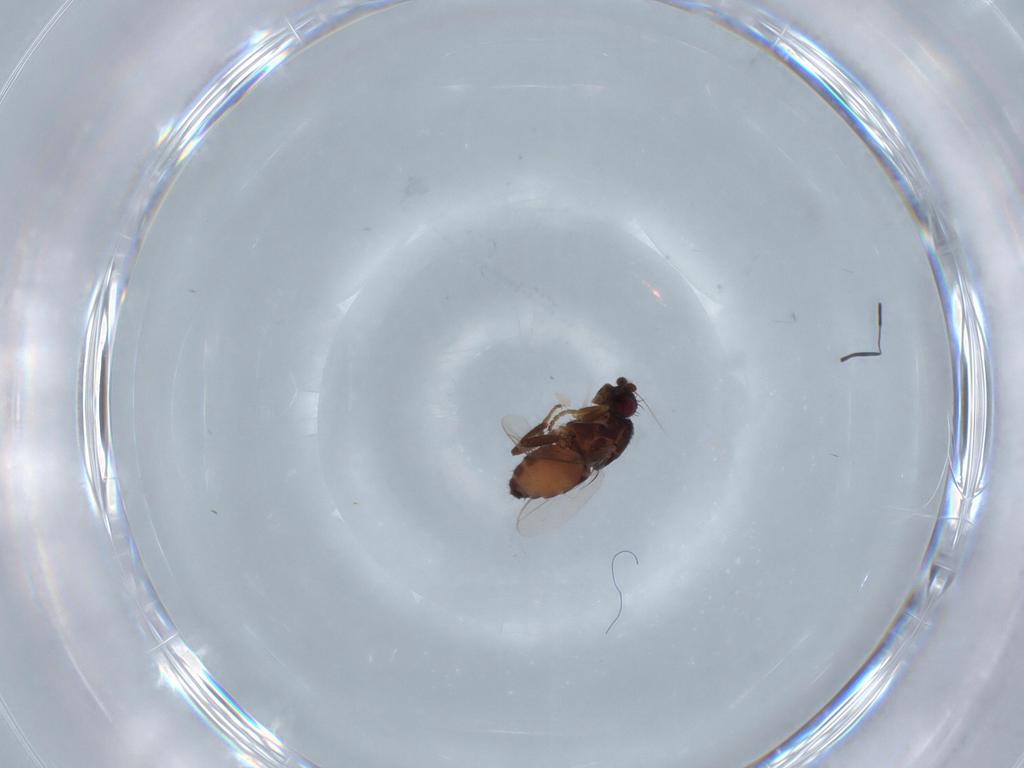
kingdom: Animalia
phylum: Arthropoda
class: Insecta
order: Diptera
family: Sphaeroceridae
